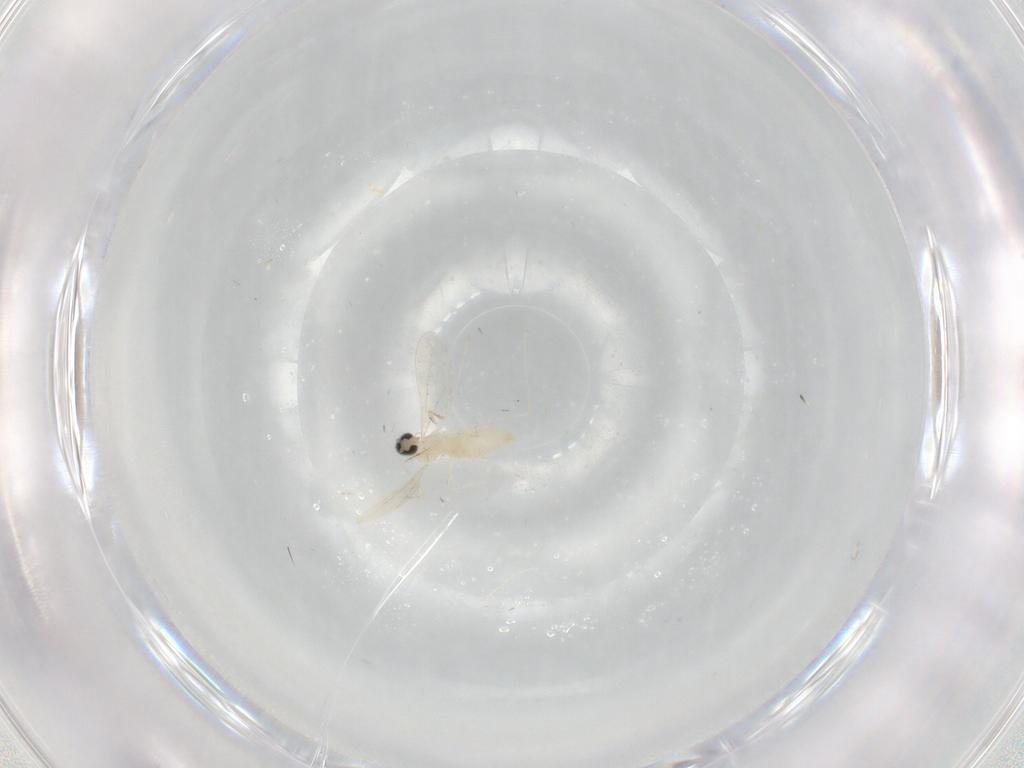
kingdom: Animalia
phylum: Arthropoda
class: Insecta
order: Diptera
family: Cecidomyiidae
